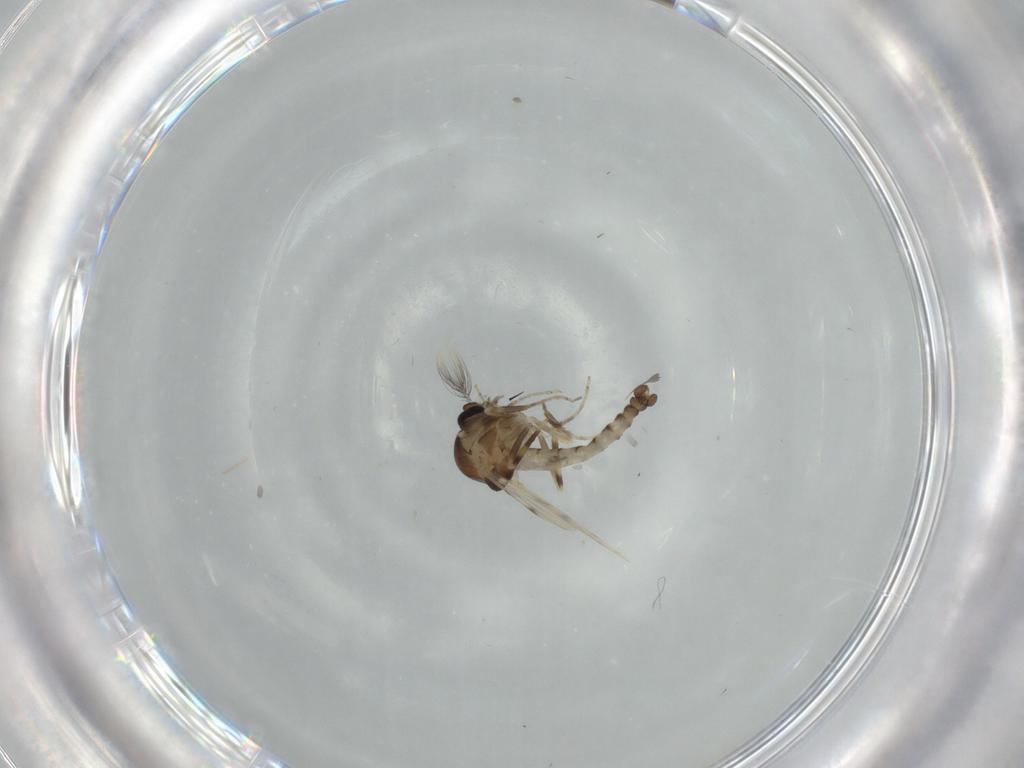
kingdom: Animalia
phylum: Arthropoda
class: Insecta
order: Diptera
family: Ceratopogonidae
